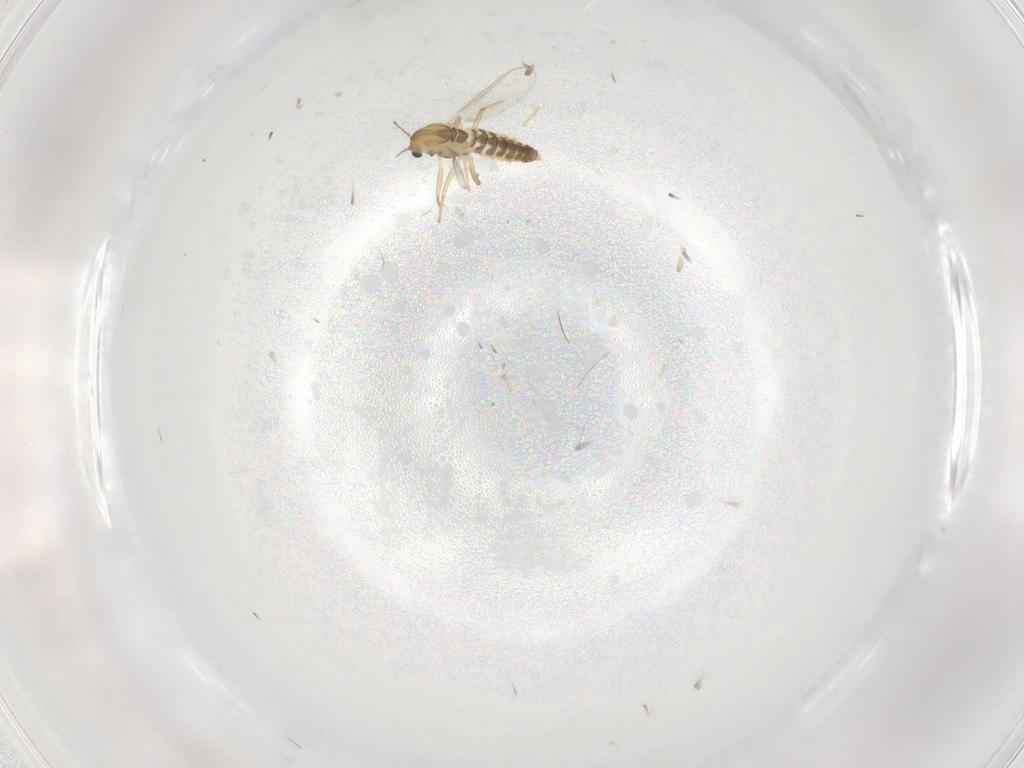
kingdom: Animalia
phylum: Arthropoda
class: Insecta
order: Diptera
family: Chironomidae
